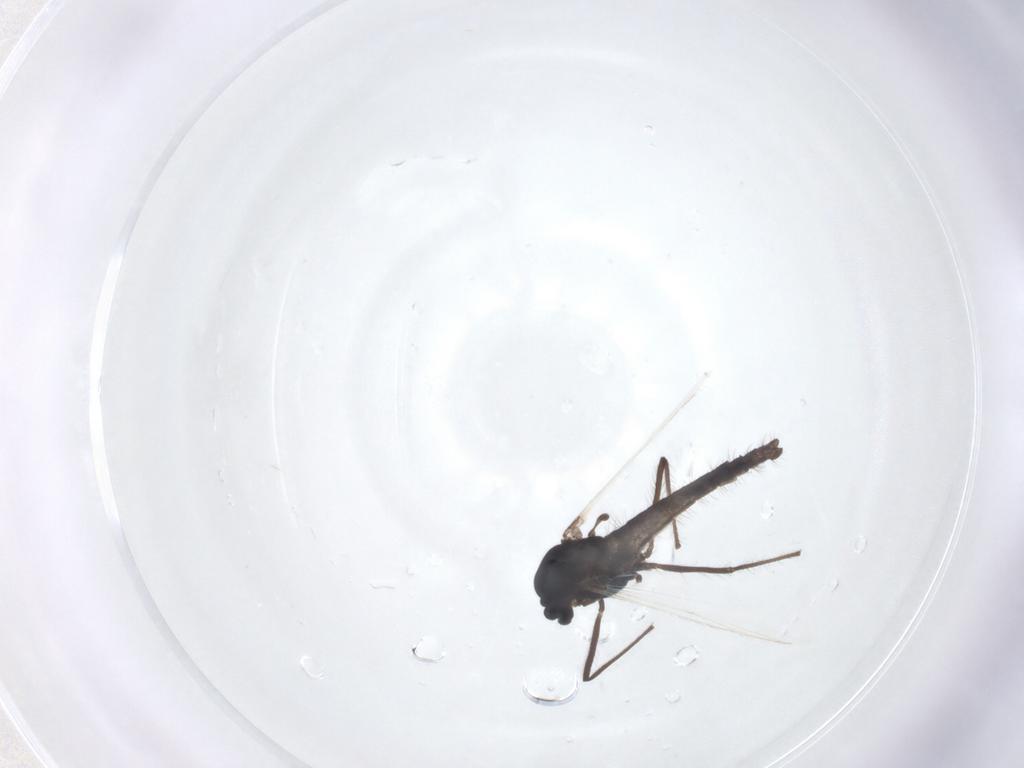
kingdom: Animalia
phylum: Arthropoda
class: Insecta
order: Diptera
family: Chironomidae
